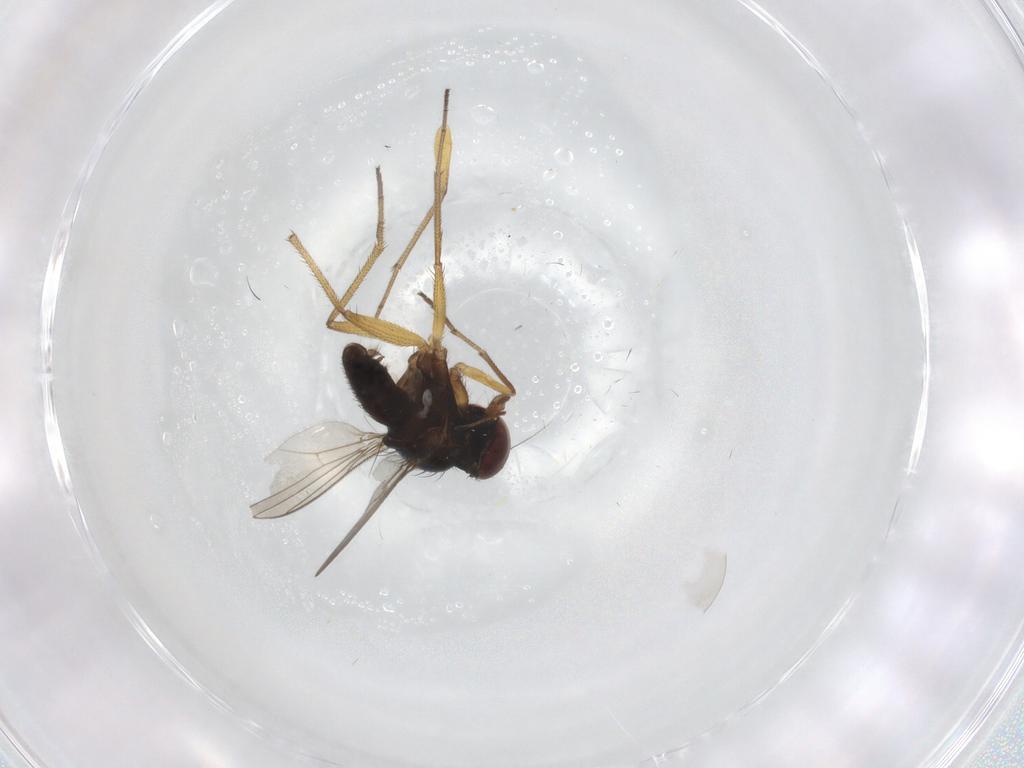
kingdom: Animalia
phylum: Arthropoda
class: Insecta
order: Diptera
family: Dolichopodidae
